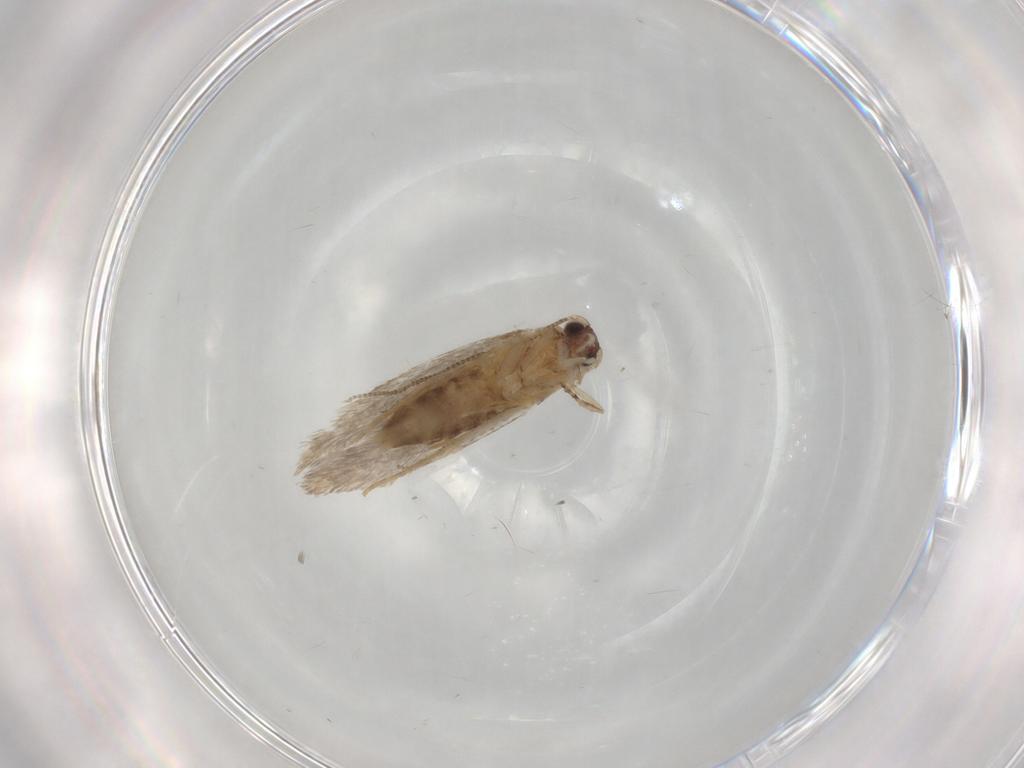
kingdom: Animalia
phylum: Arthropoda
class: Insecta
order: Lepidoptera
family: Tineidae
